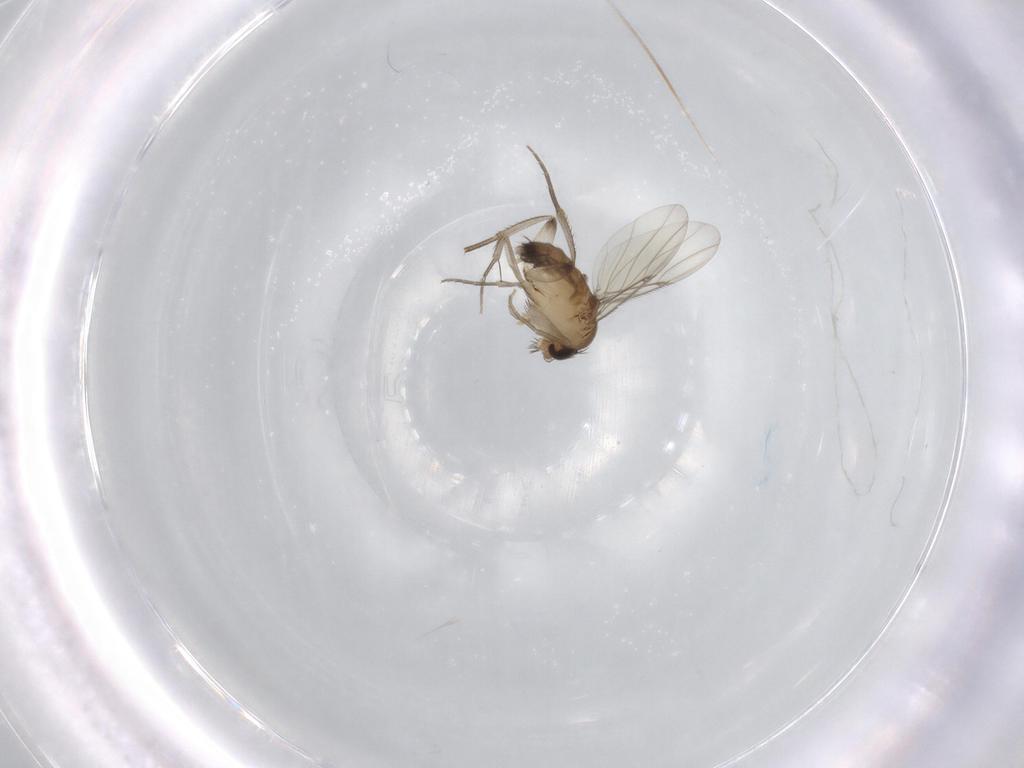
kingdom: Animalia
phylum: Arthropoda
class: Insecta
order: Diptera
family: Phoridae
